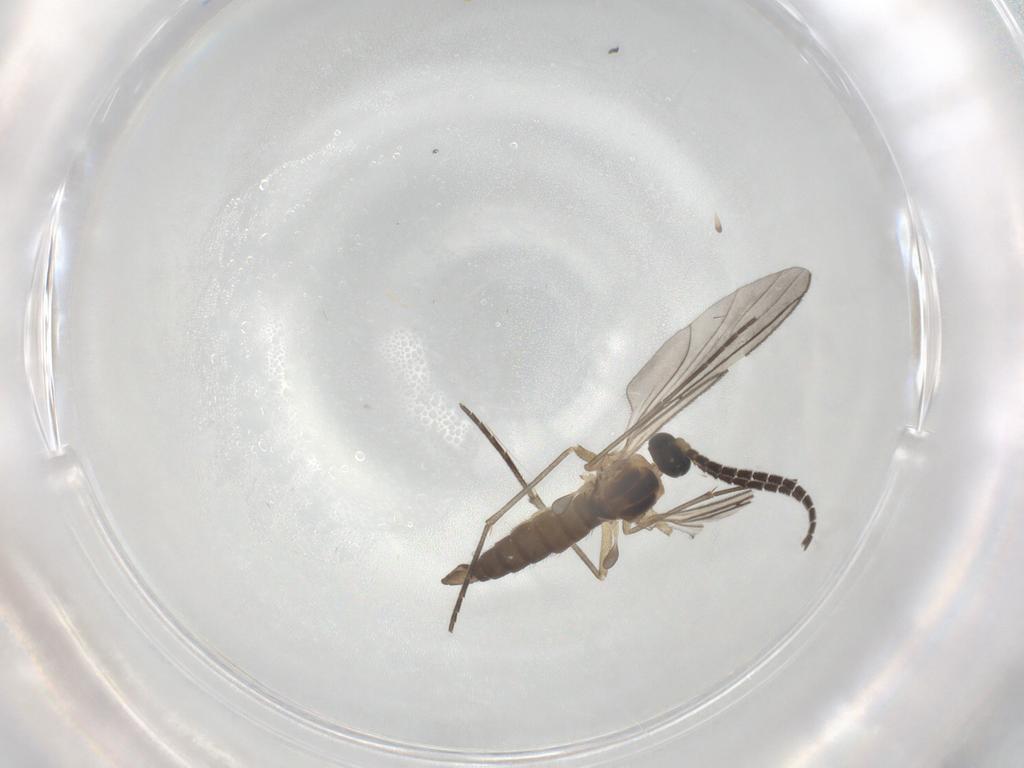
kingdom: Animalia
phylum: Arthropoda
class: Insecta
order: Diptera
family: Sciaridae
